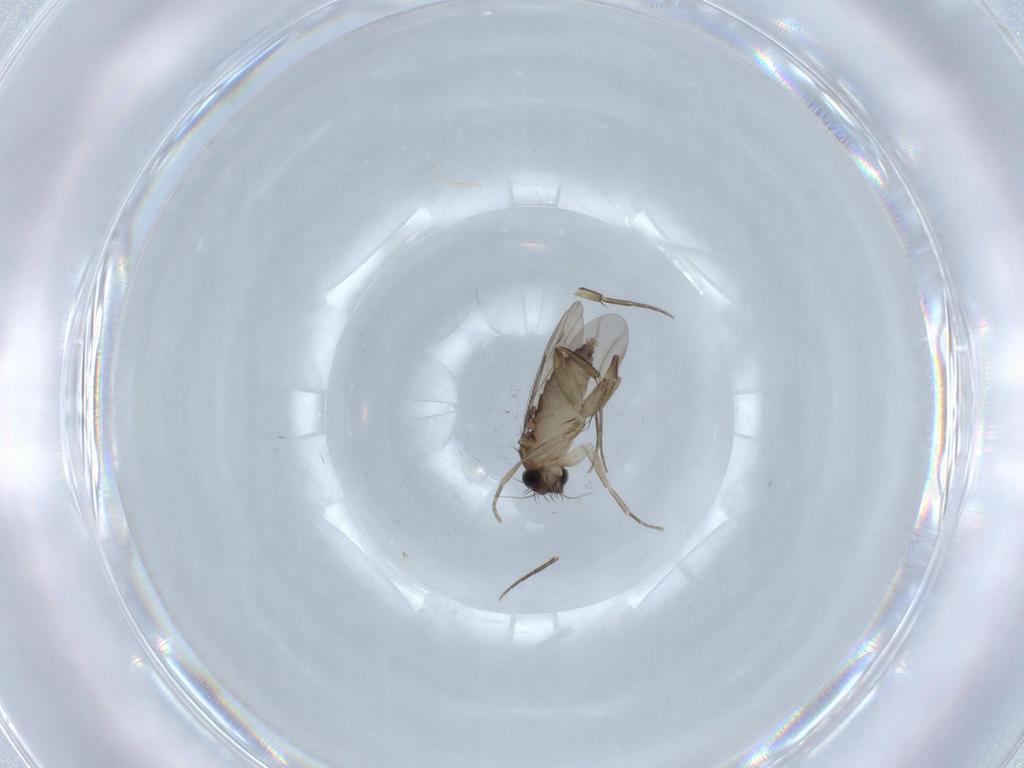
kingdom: Animalia
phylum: Arthropoda
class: Insecta
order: Diptera
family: Phoridae
